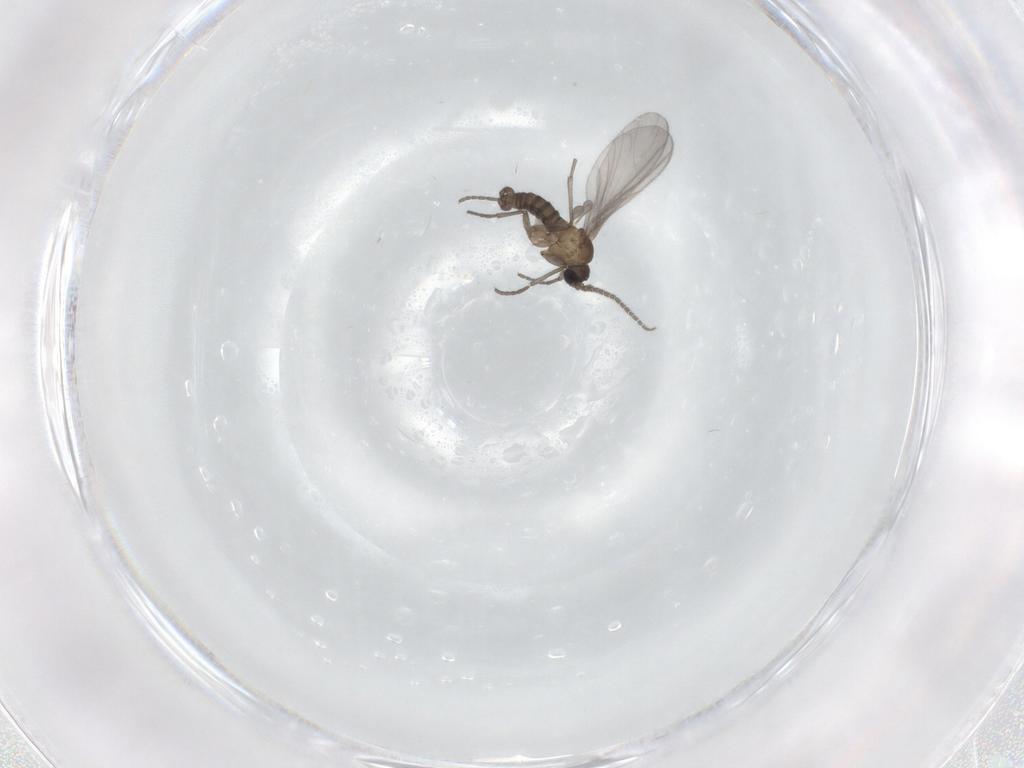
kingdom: Animalia
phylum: Arthropoda
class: Insecta
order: Diptera
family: Sciaridae
